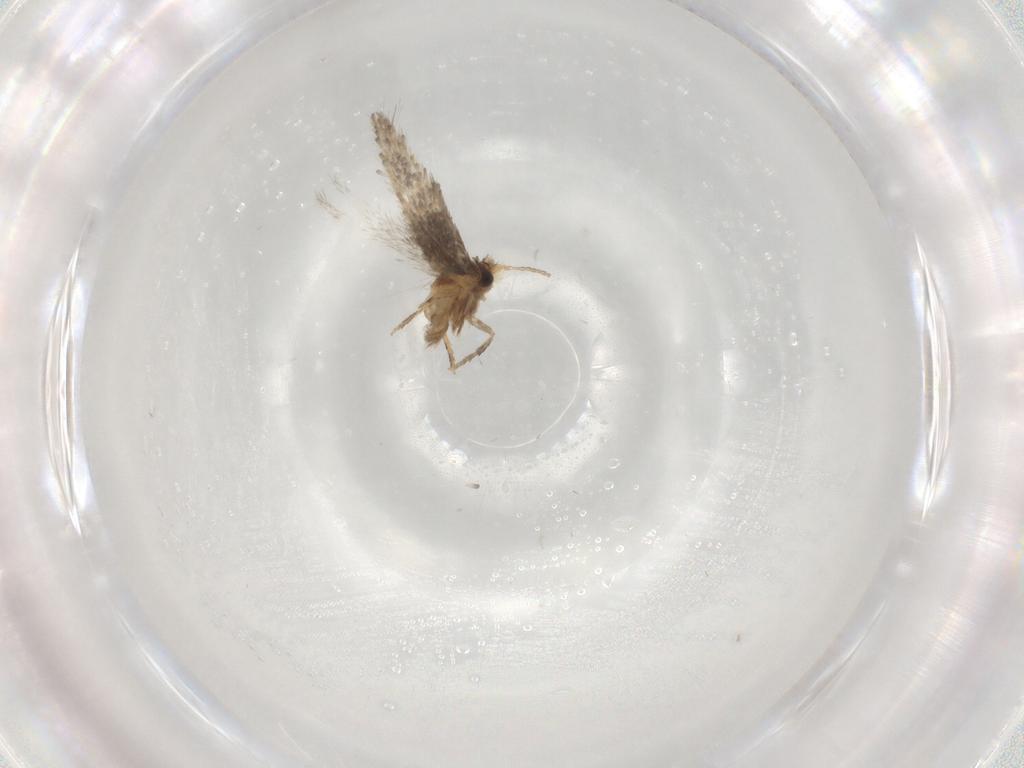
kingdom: Animalia
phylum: Arthropoda
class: Insecta
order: Lepidoptera
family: Nepticulidae
